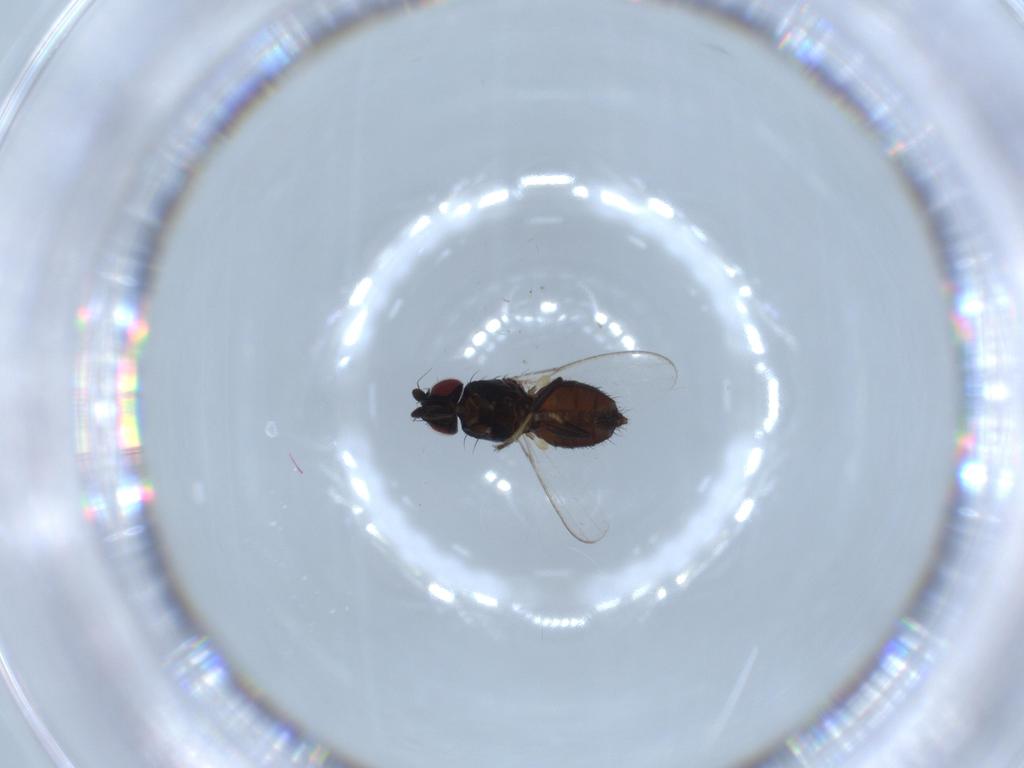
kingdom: Animalia
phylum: Arthropoda
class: Insecta
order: Diptera
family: Milichiidae
